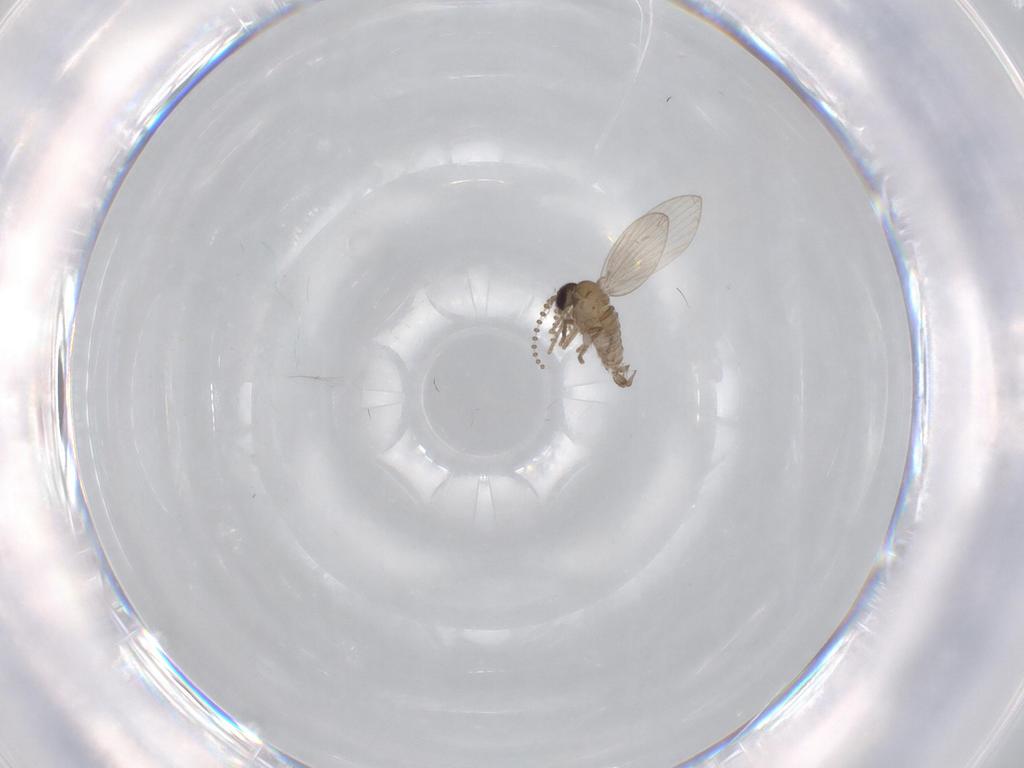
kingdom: Animalia
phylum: Arthropoda
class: Insecta
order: Diptera
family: Psychodidae
